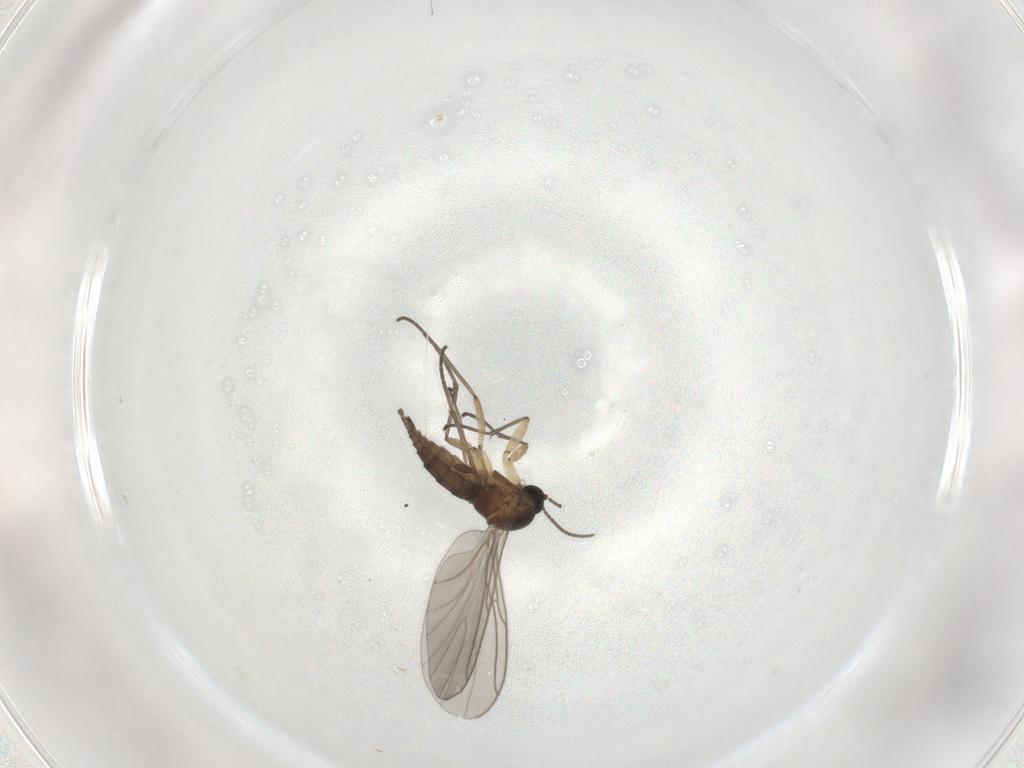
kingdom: Animalia
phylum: Arthropoda
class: Insecta
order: Diptera
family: Sciaridae
